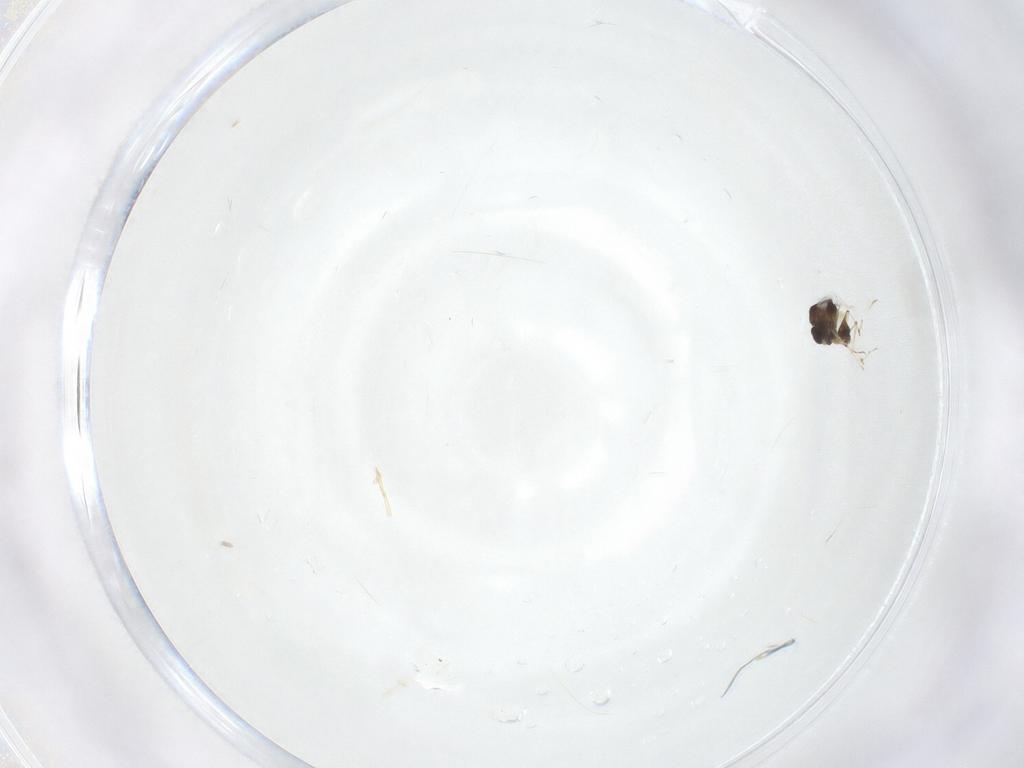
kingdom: Animalia
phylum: Arthropoda
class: Insecta
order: Diptera
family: Chironomidae
